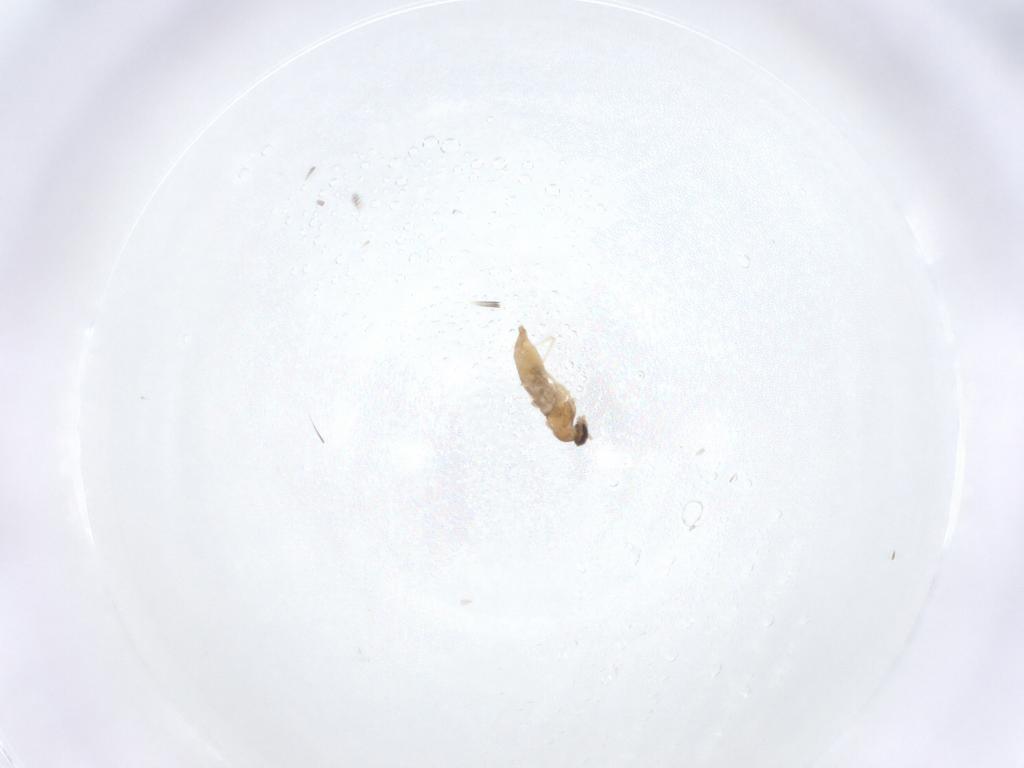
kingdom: Animalia
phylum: Arthropoda
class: Insecta
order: Diptera
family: Cecidomyiidae
